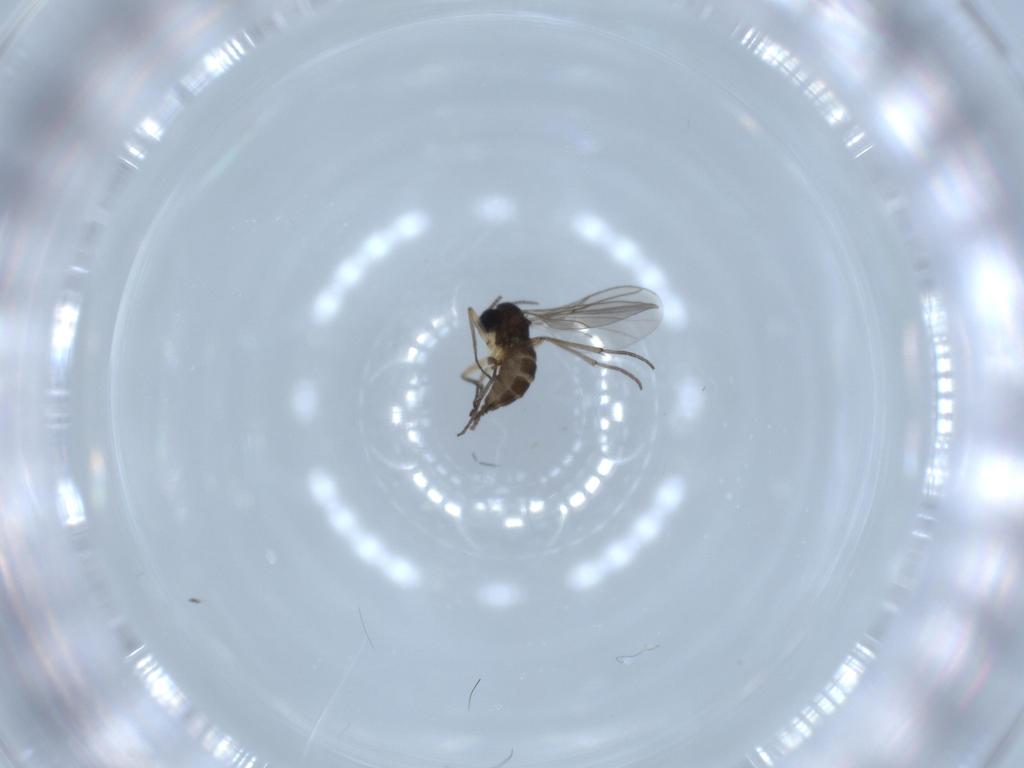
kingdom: Animalia
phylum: Arthropoda
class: Insecta
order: Diptera
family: Sciaridae
